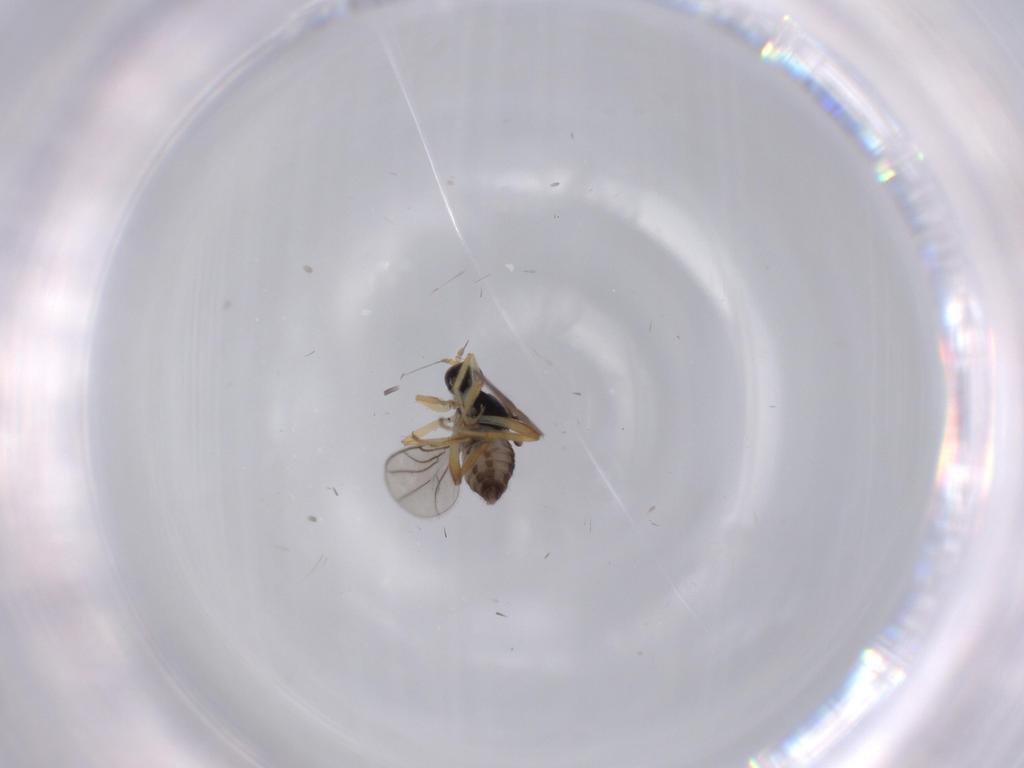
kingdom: Animalia
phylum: Arthropoda
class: Insecta
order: Diptera
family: Hybotidae
